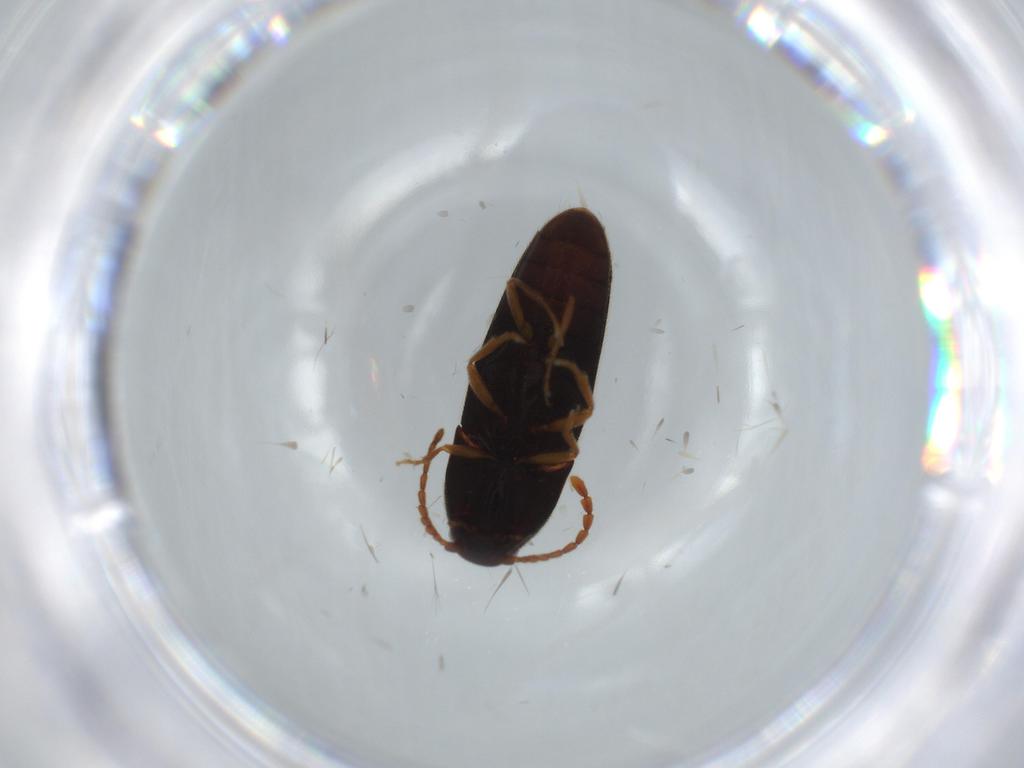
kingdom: Animalia
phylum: Arthropoda
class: Insecta
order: Coleoptera
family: Elateridae
